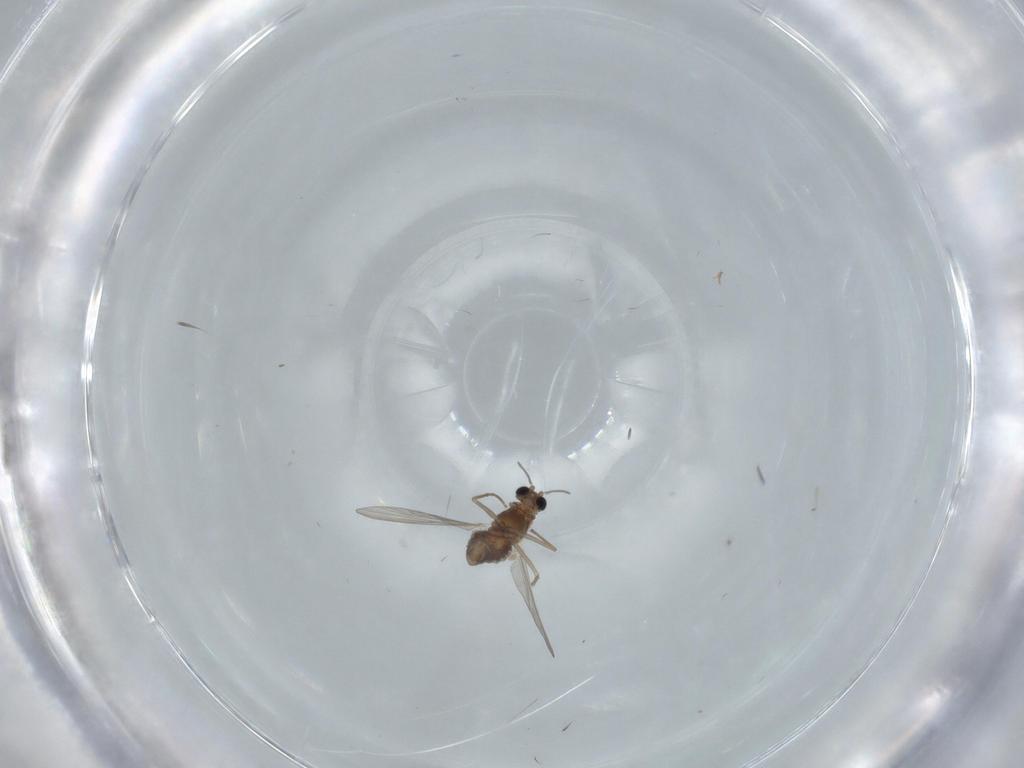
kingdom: Animalia
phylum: Arthropoda
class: Insecta
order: Diptera
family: Chironomidae
